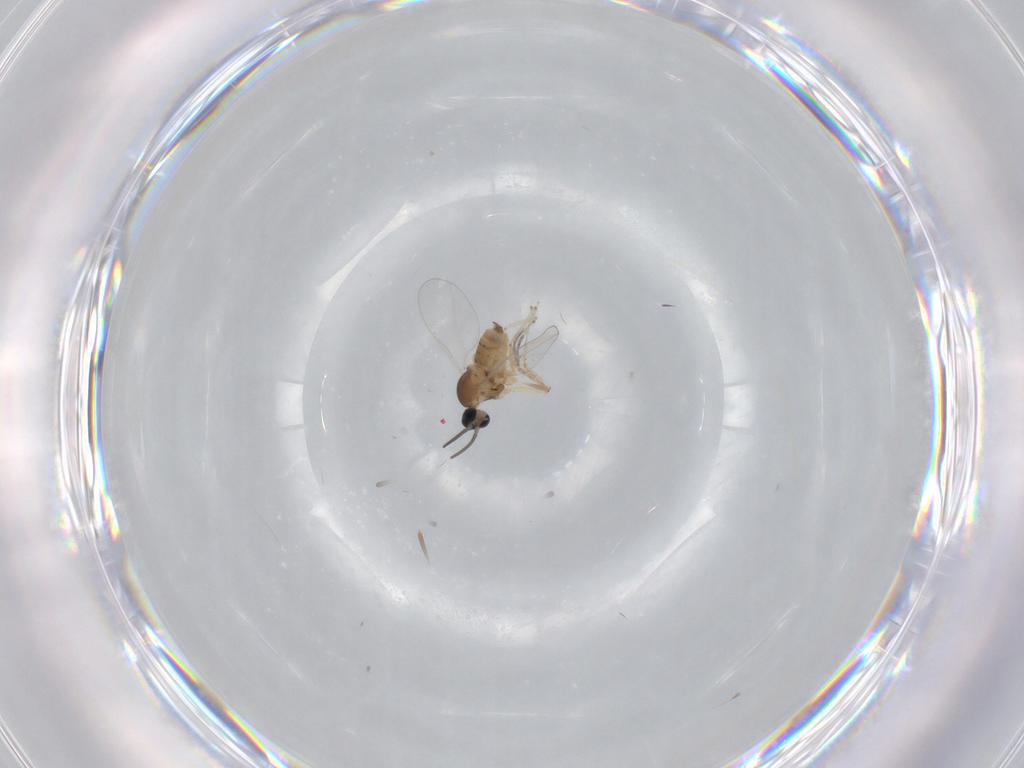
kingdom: Animalia
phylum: Arthropoda
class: Insecta
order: Diptera
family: Cecidomyiidae
